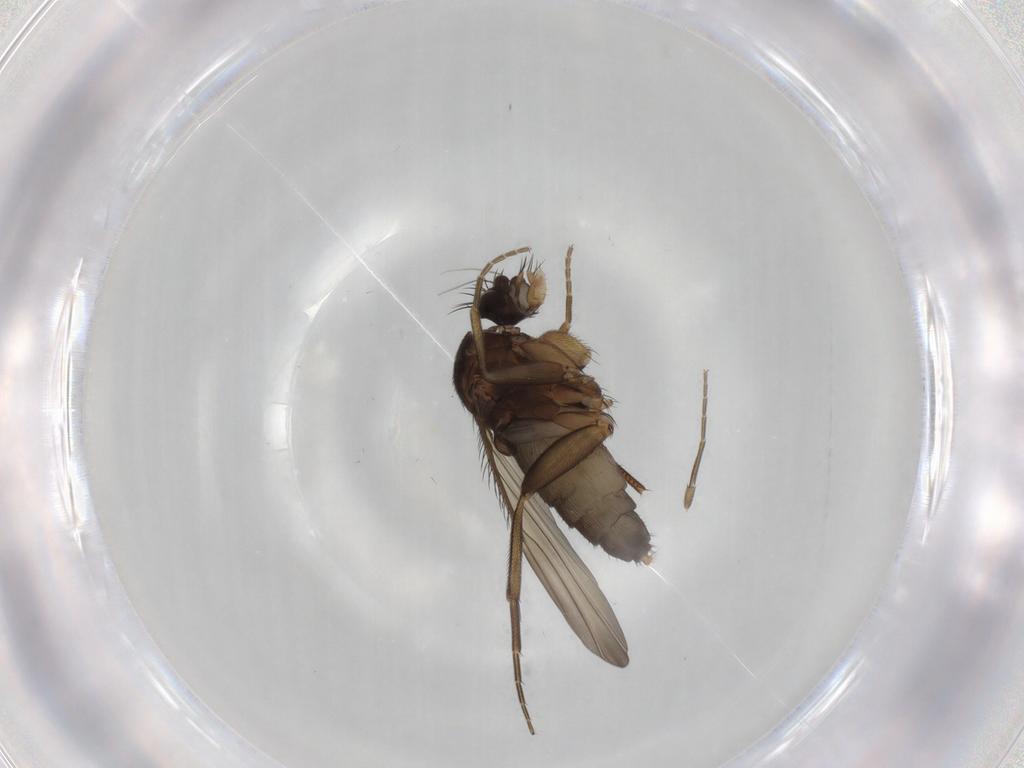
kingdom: Animalia
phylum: Arthropoda
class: Insecta
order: Diptera
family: Phoridae
